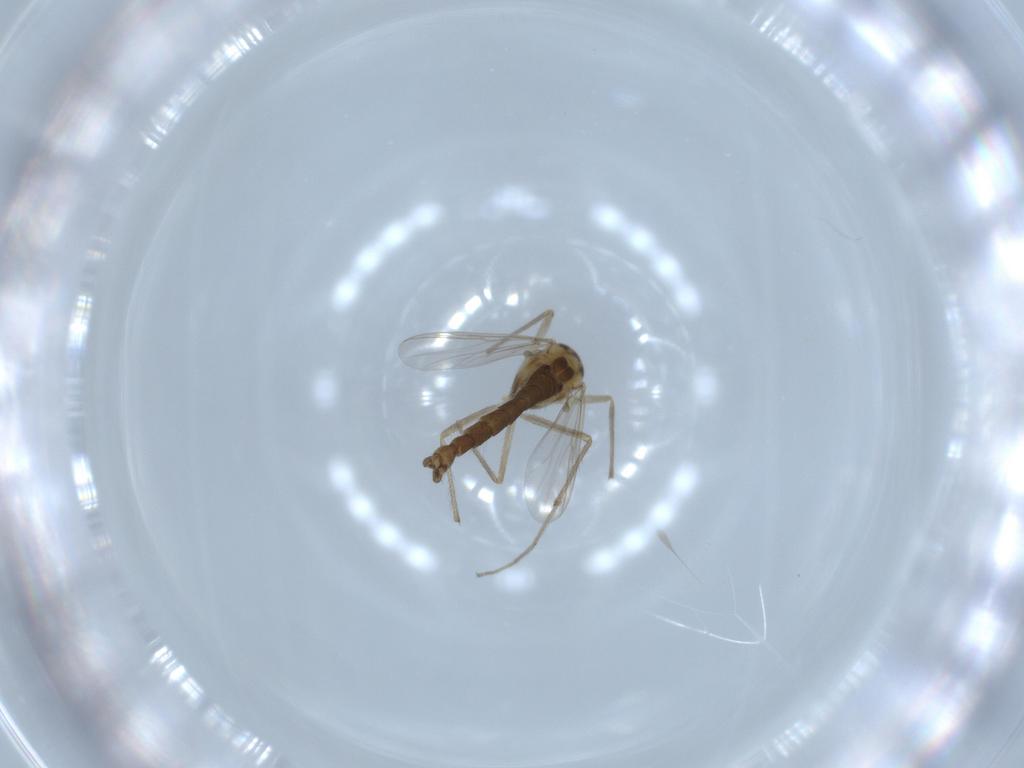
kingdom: Animalia
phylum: Arthropoda
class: Insecta
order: Diptera
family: Chironomidae
